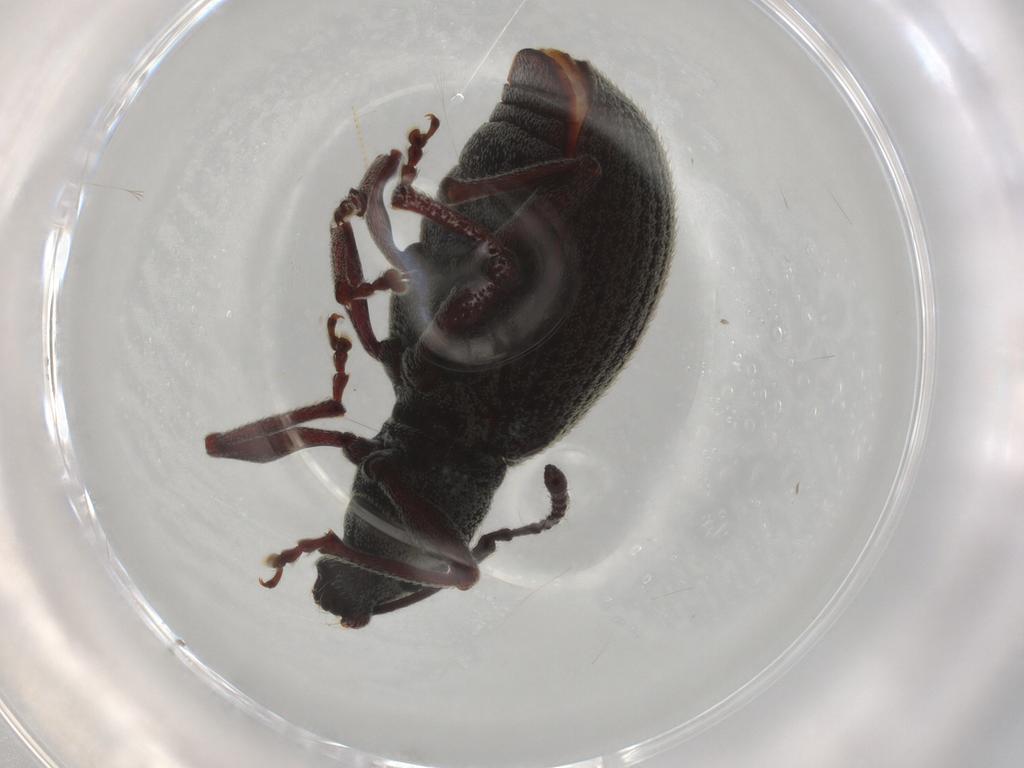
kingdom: Animalia
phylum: Arthropoda
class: Insecta
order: Coleoptera
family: Curculionidae
